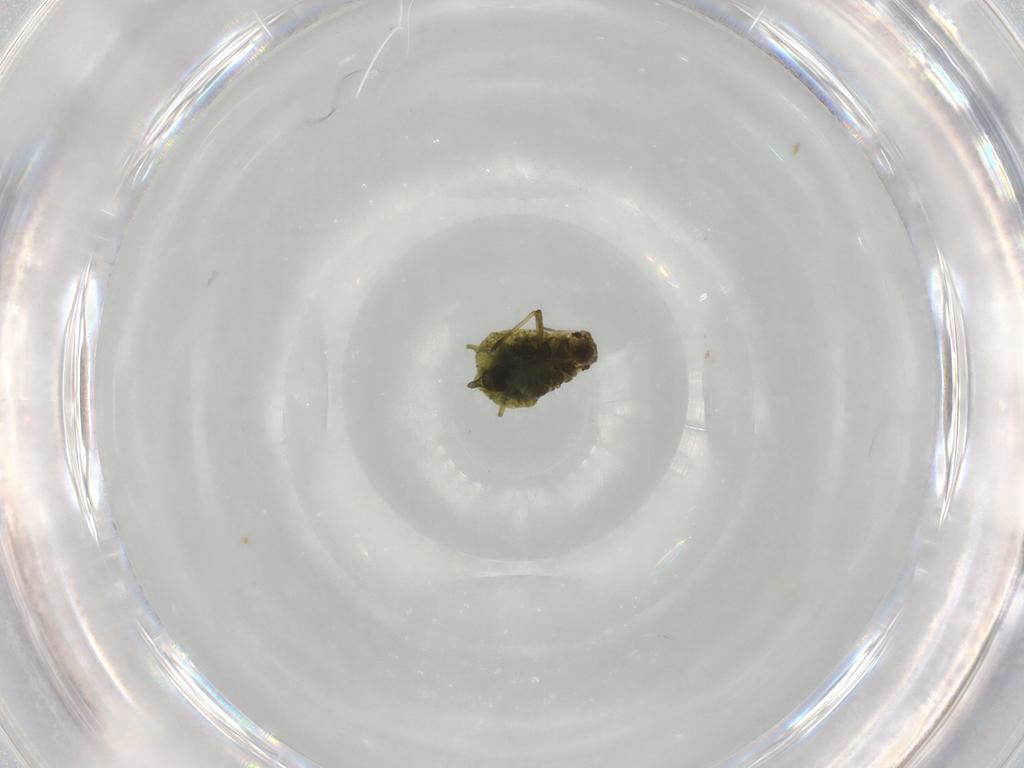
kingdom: Animalia
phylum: Arthropoda
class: Insecta
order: Hemiptera
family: Aphididae
